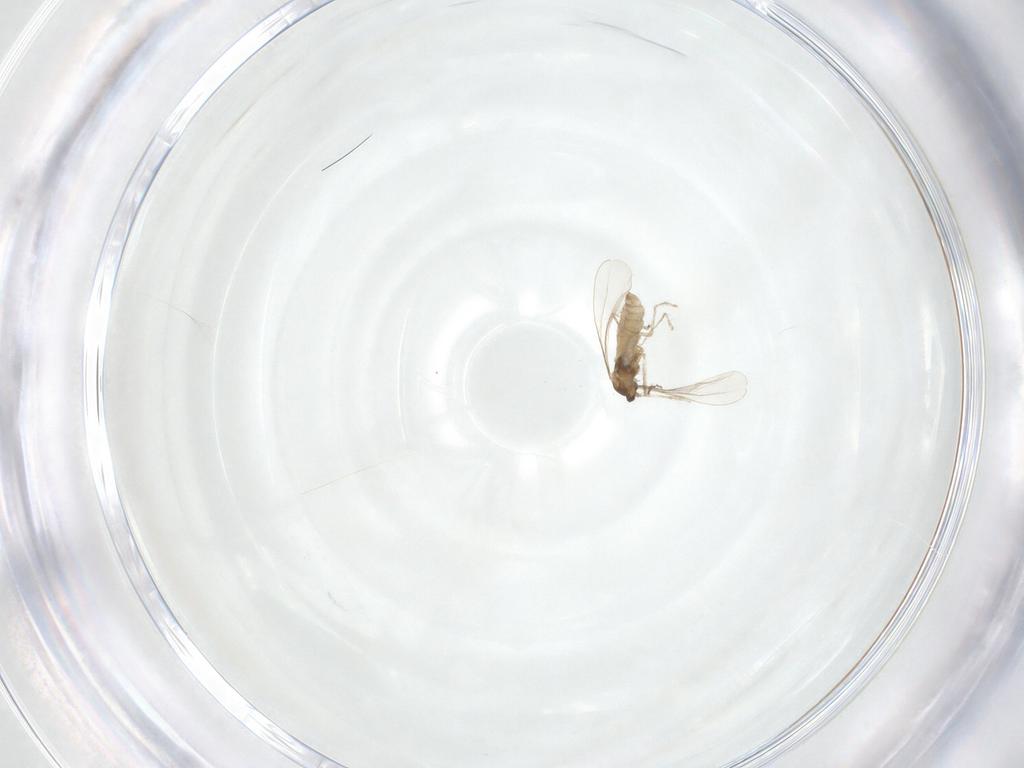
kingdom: Animalia
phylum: Arthropoda
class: Insecta
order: Diptera
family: Cecidomyiidae
